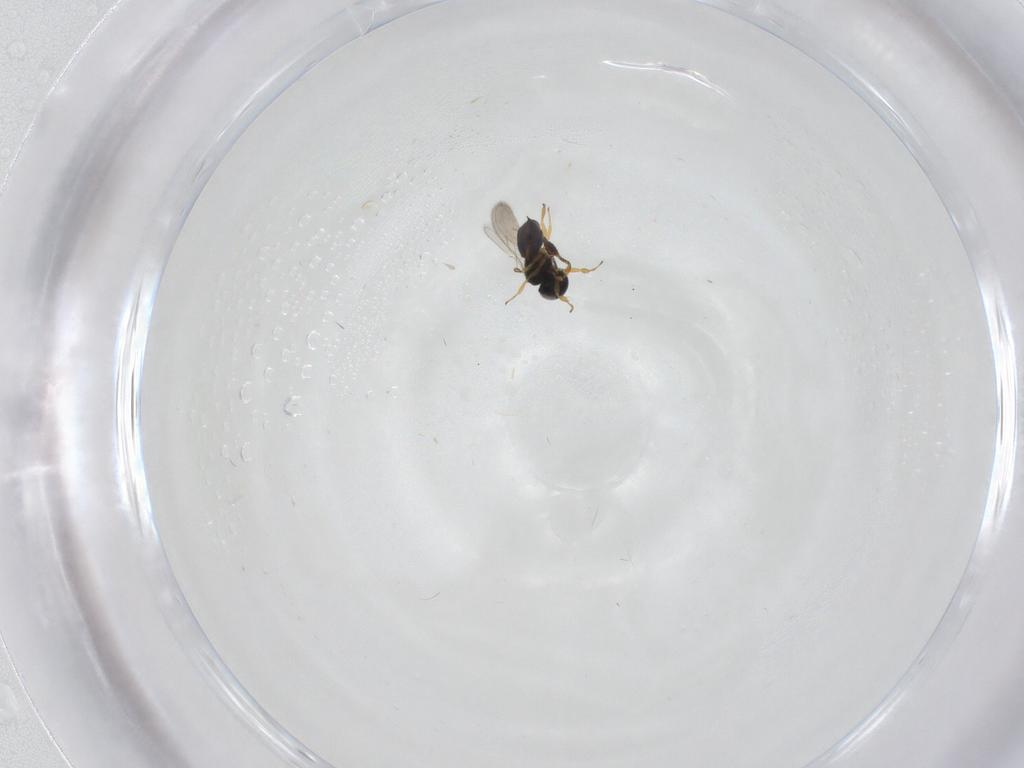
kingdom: Animalia
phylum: Arthropoda
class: Insecta
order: Hymenoptera
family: Scelionidae
